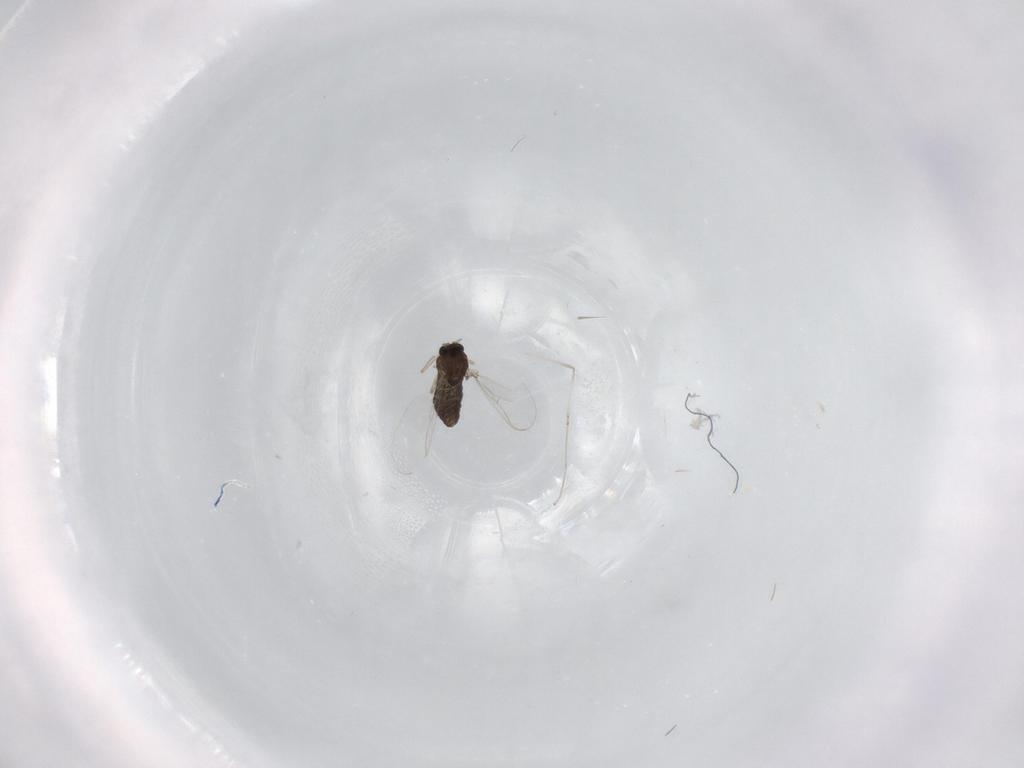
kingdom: Animalia
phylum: Arthropoda
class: Insecta
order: Diptera
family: Chironomidae
